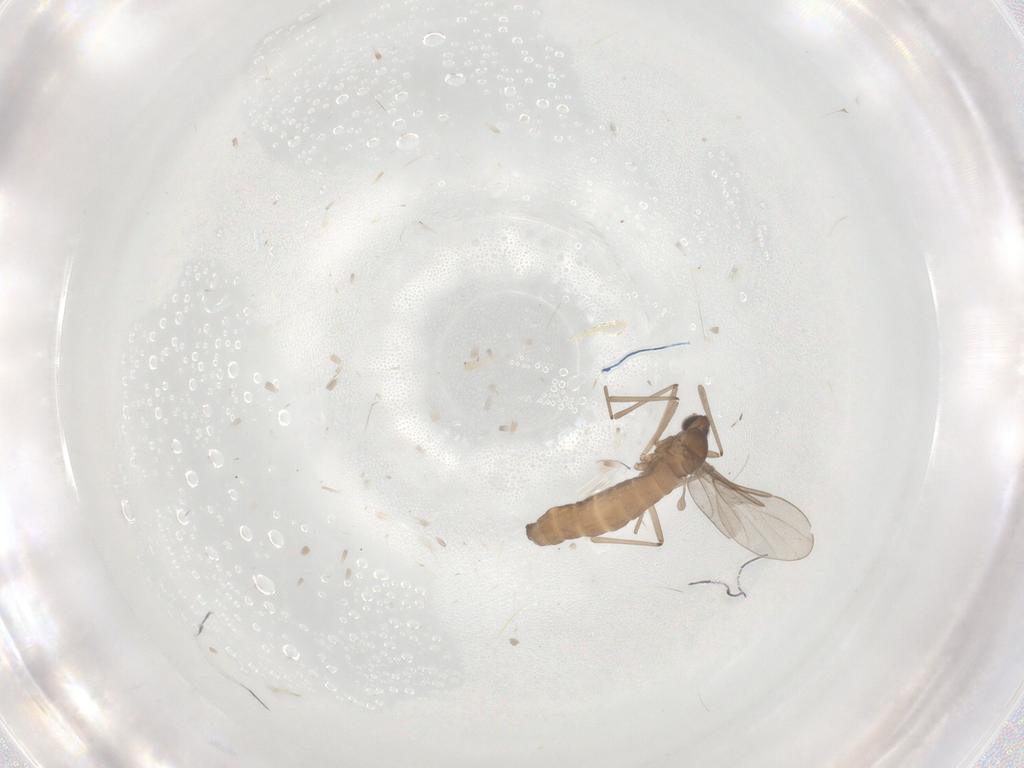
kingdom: Animalia
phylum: Arthropoda
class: Insecta
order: Diptera
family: Cecidomyiidae
